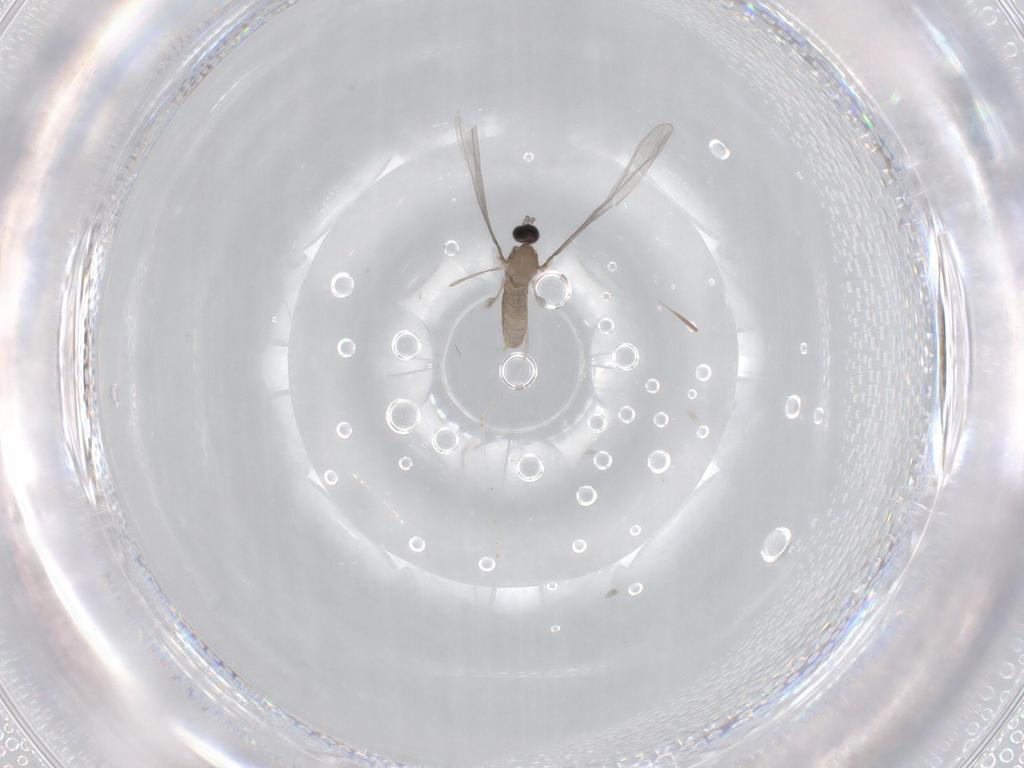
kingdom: Animalia
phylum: Arthropoda
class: Insecta
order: Diptera
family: Cecidomyiidae
